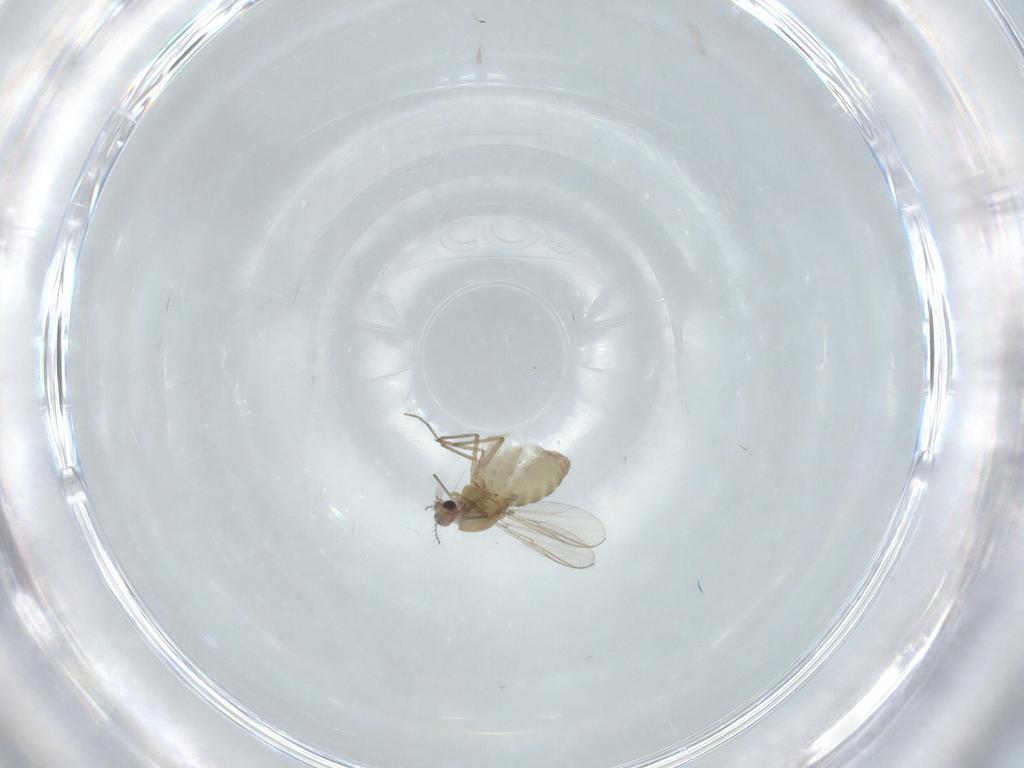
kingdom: Animalia
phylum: Arthropoda
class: Insecta
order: Diptera
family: Chironomidae
